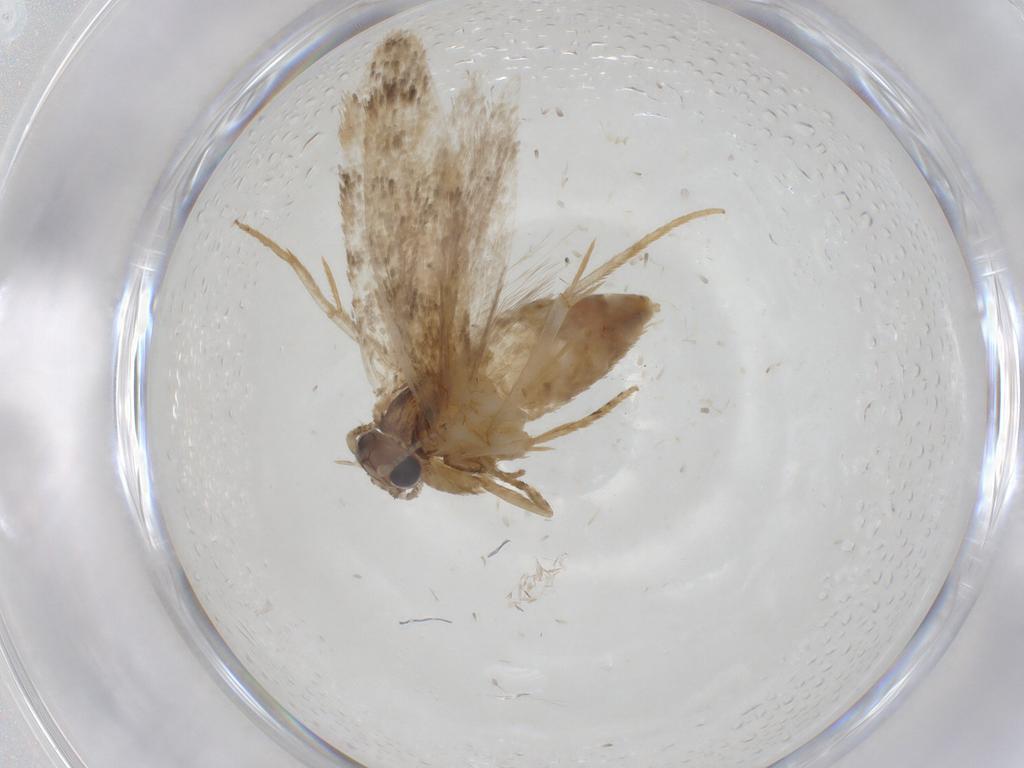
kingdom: Animalia
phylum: Arthropoda
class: Insecta
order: Lepidoptera
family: Tineidae
